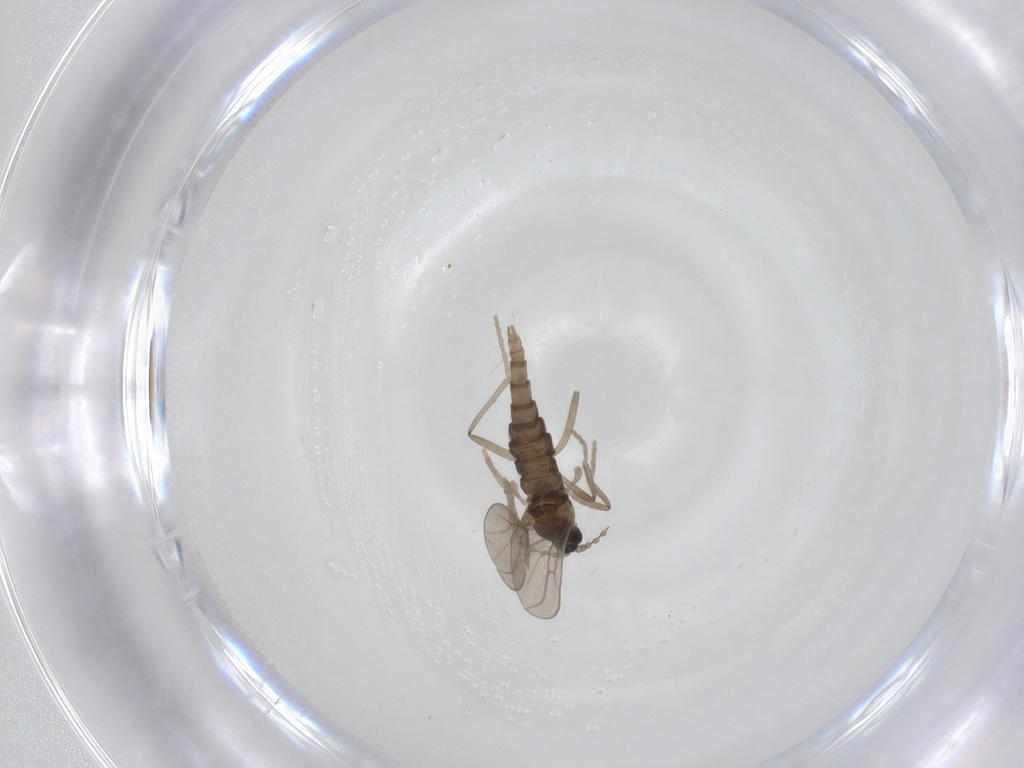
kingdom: Animalia
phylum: Arthropoda
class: Insecta
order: Diptera
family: Cecidomyiidae
